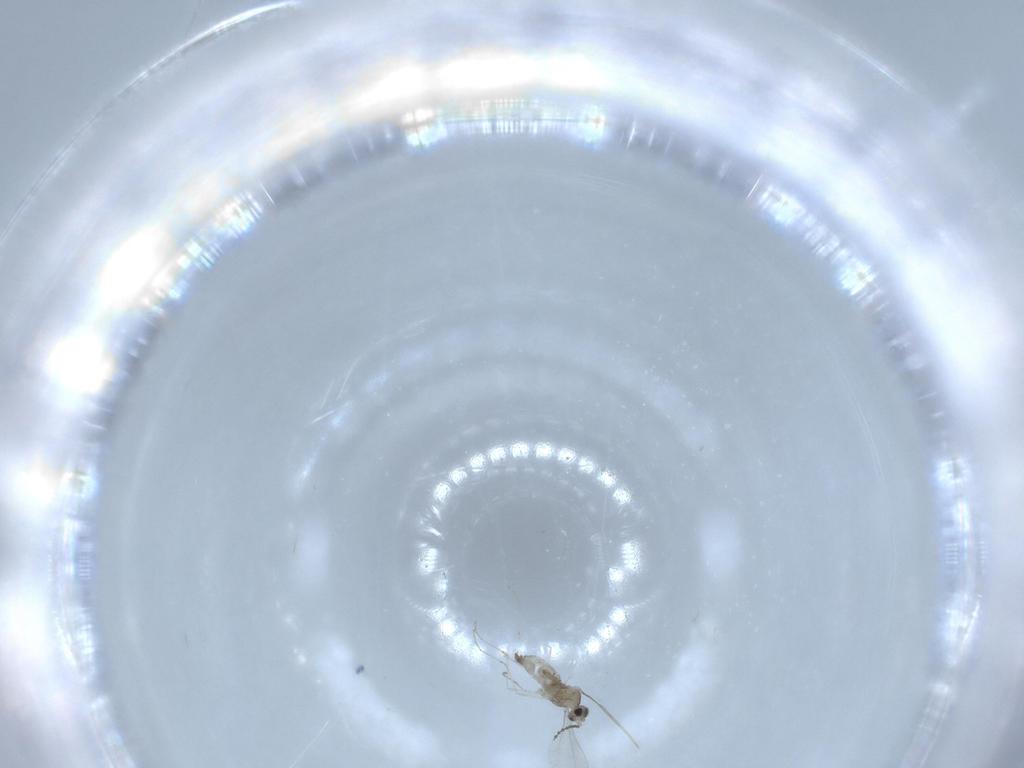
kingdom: Animalia
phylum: Arthropoda
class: Insecta
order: Diptera
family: Cecidomyiidae
